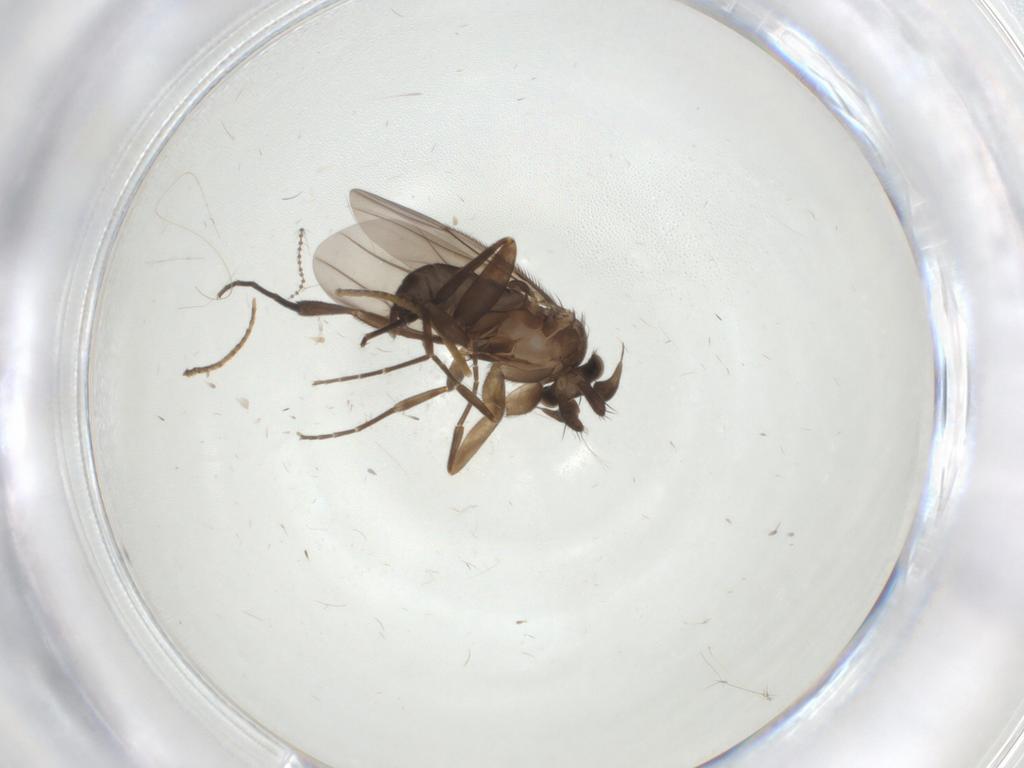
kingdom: Animalia
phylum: Arthropoda
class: Insecta
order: Diptera
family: Phoridae
